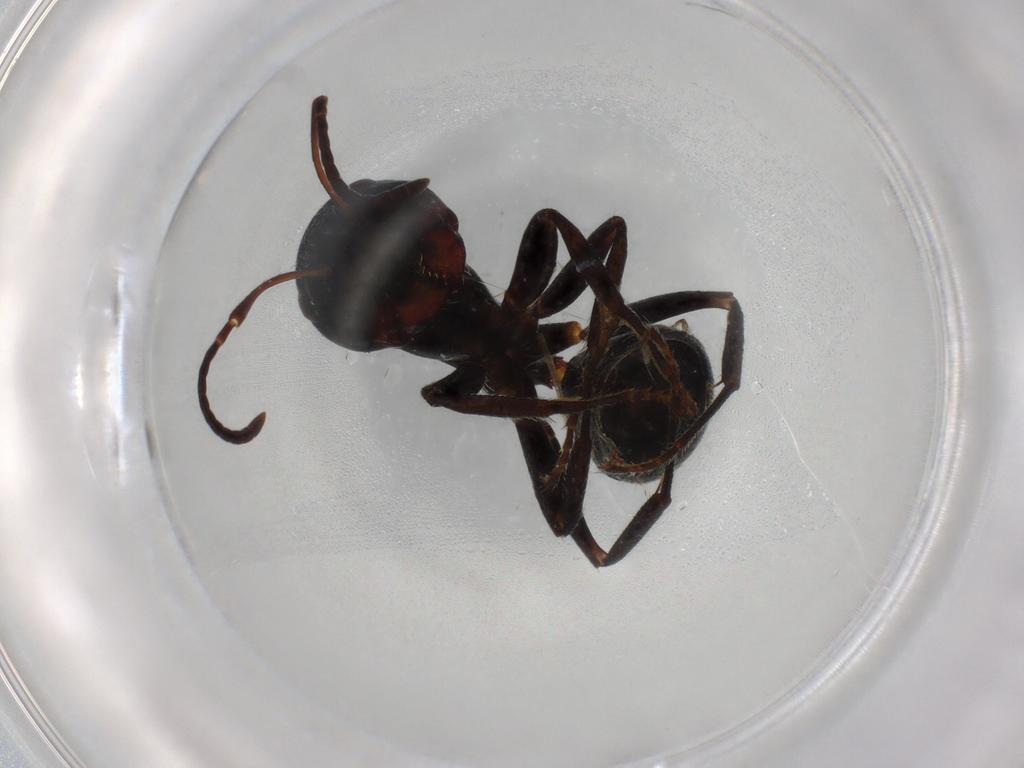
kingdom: Animalia
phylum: Arthropoda
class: Insecta
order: Hymenoptera
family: Formicidae
